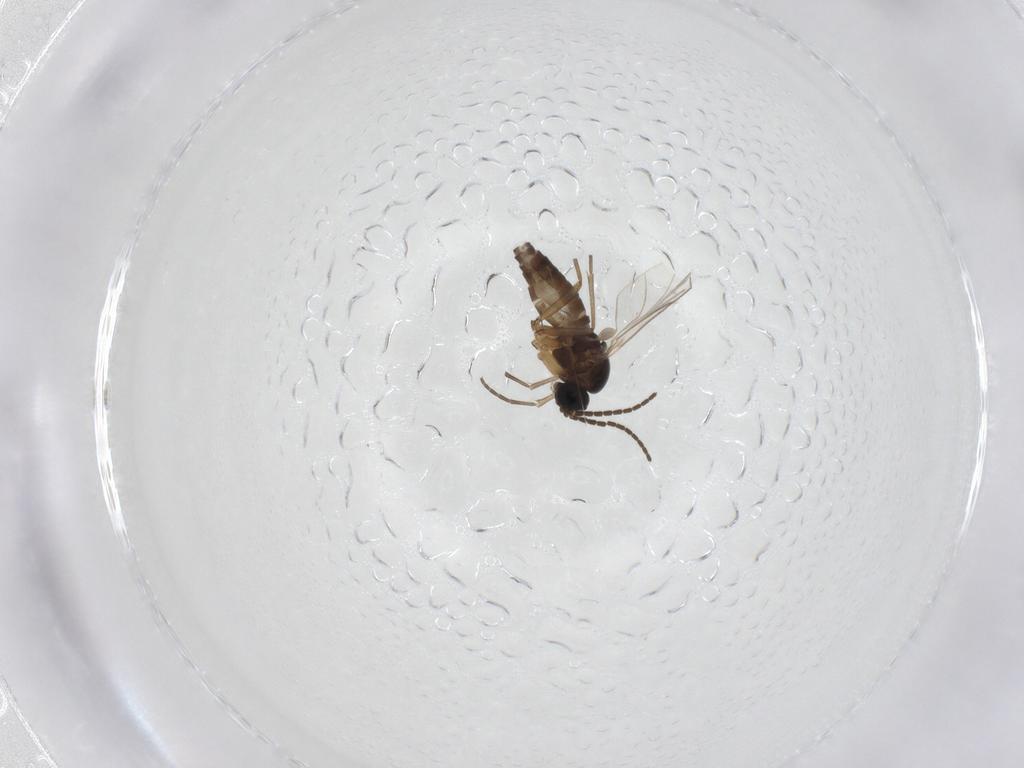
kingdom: Animalia
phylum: Arthropoda
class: Insecta
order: Diptera
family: Sciaridae
